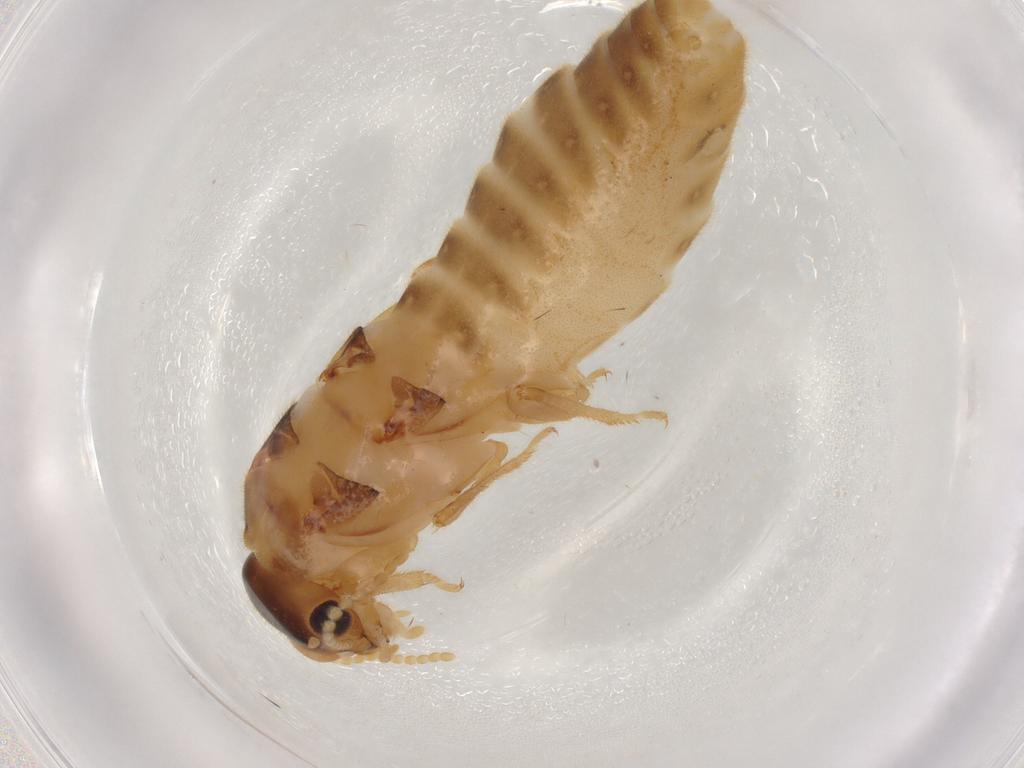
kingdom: Animalia
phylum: Arthropoda
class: Insecta
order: Blattodea
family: Termitidae
